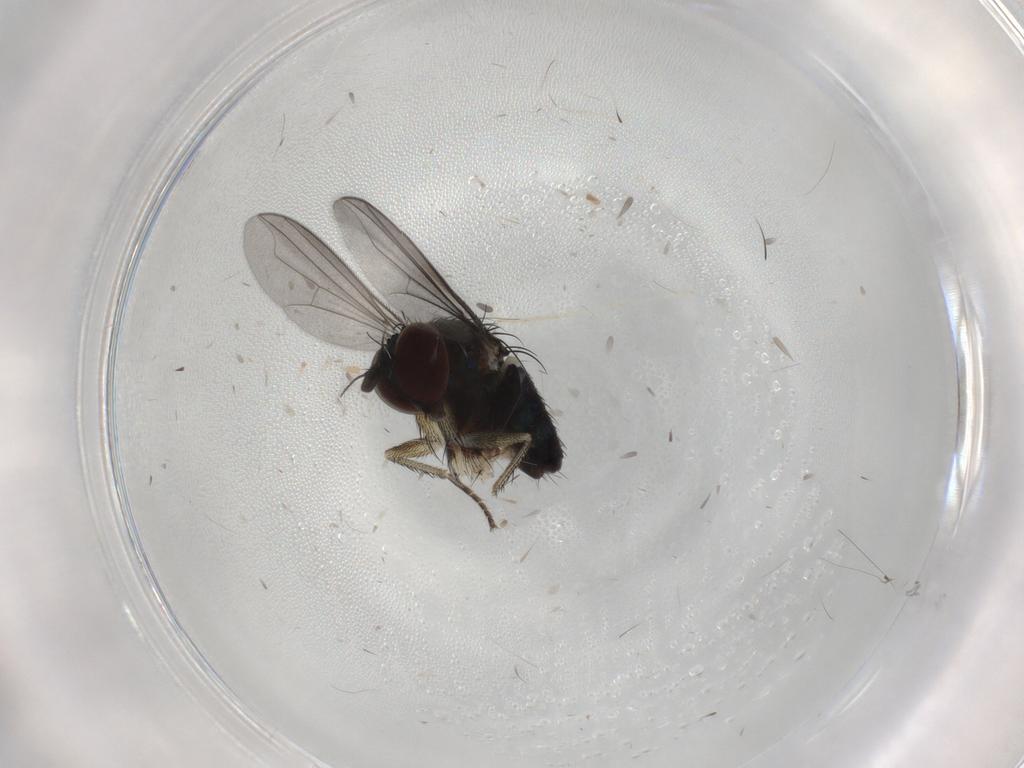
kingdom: Animalia
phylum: Arthropoda
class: Insecta
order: Diptera
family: Dolichopodidae
